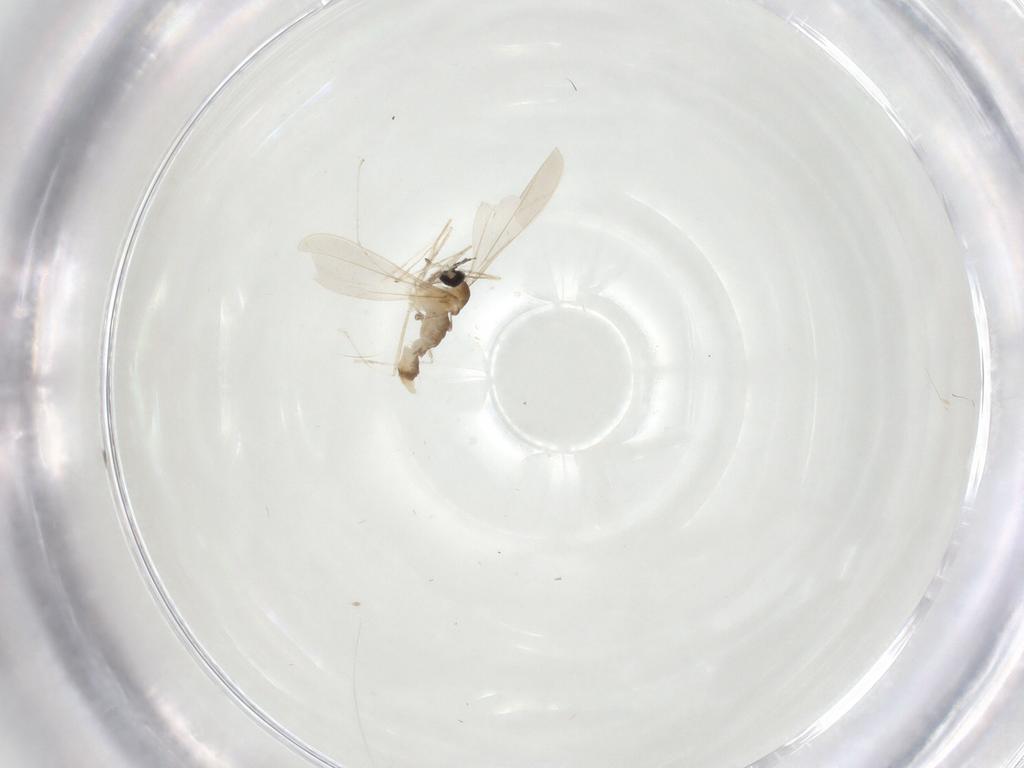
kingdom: Animalia
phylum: Arthropoda
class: Insecta
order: Diptera
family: Cecidomyiidae
